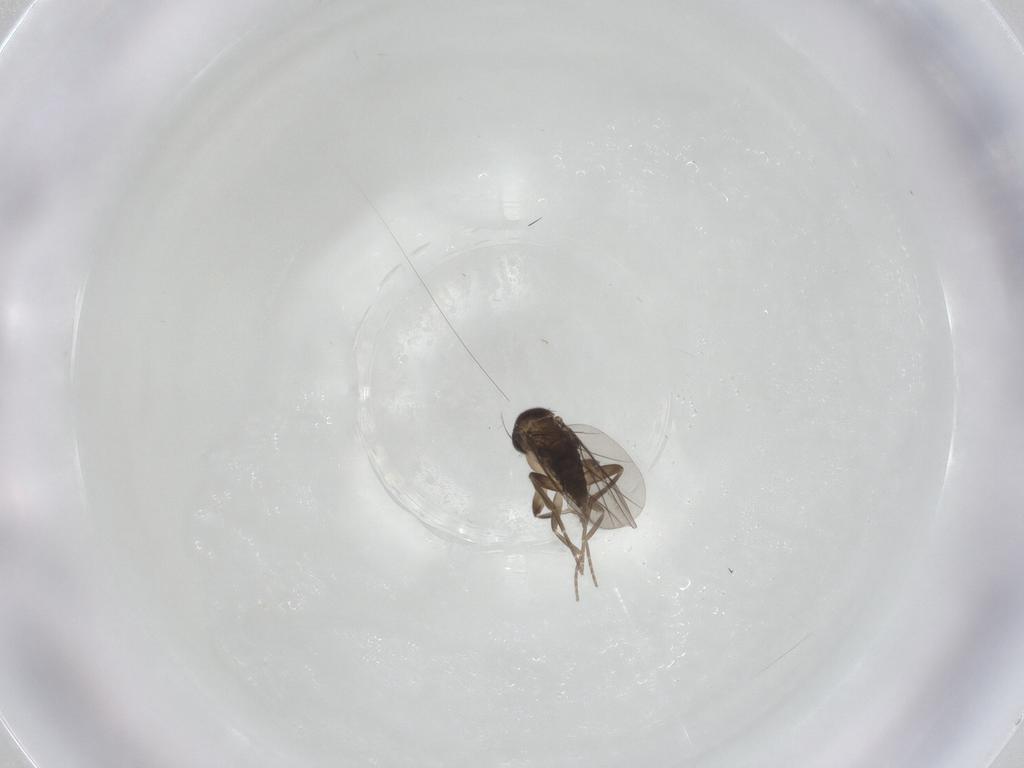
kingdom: Animalia
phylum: Arthropoda
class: Insecta
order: Diptera
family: Phoridae
